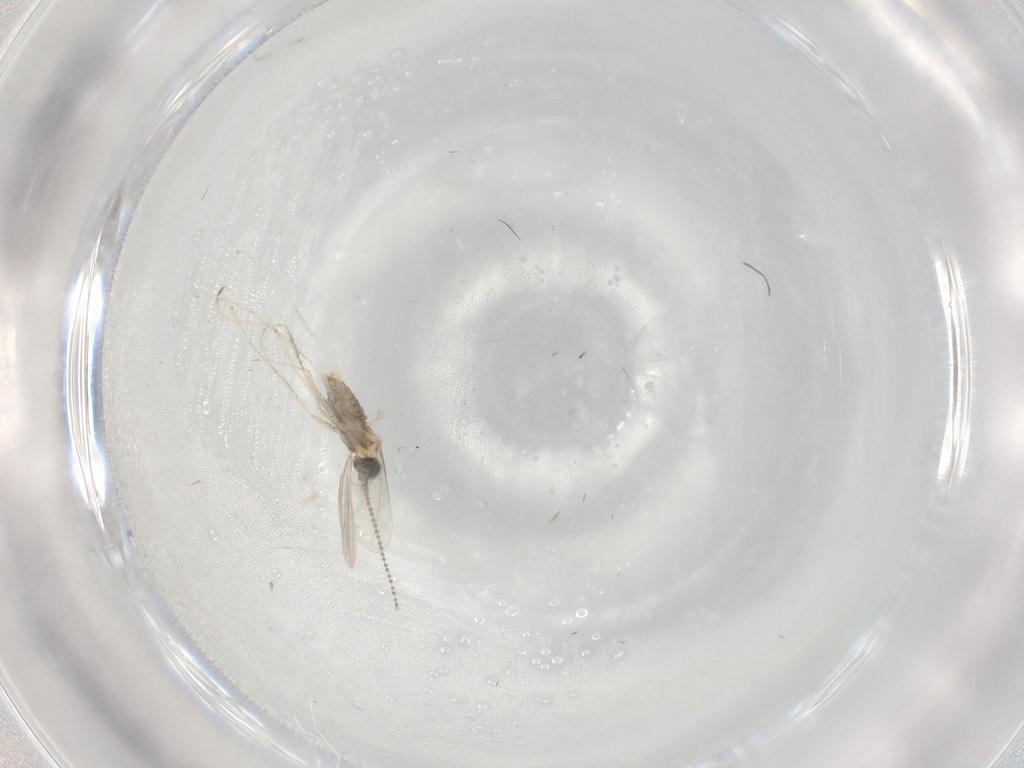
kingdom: Animalia
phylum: Arthropoda
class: Insecta
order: Diptera
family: Cecidomyiidae
